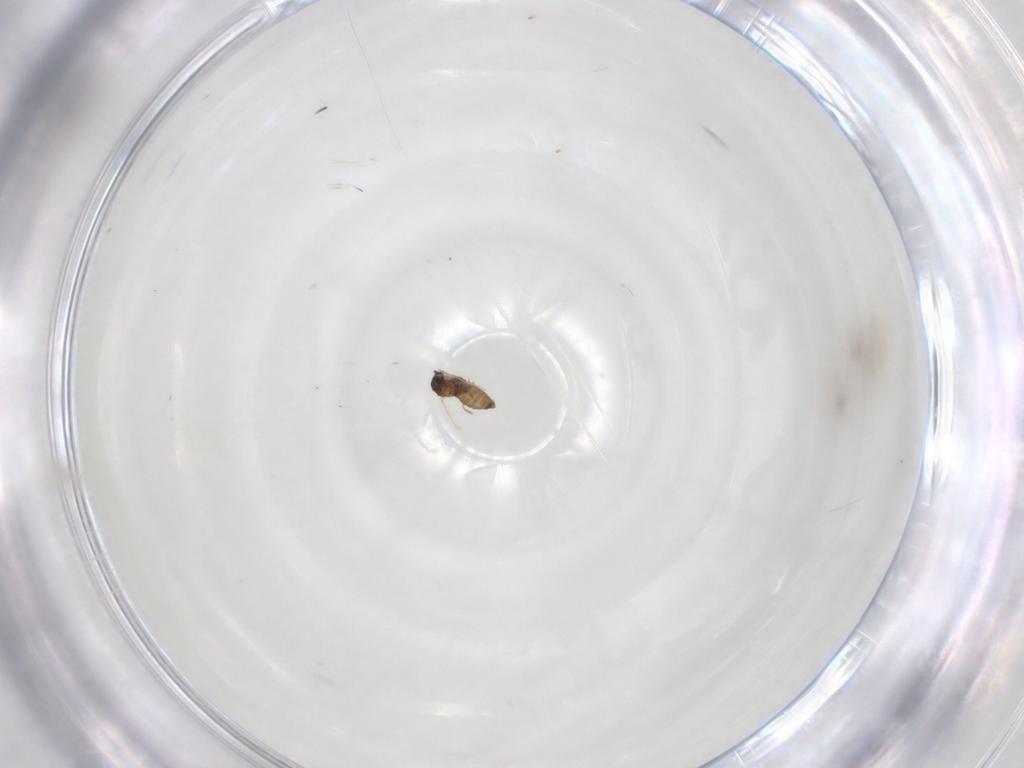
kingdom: Animalia
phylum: Arthropoda
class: Insecta
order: Diptera
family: Cecidomyiidae
